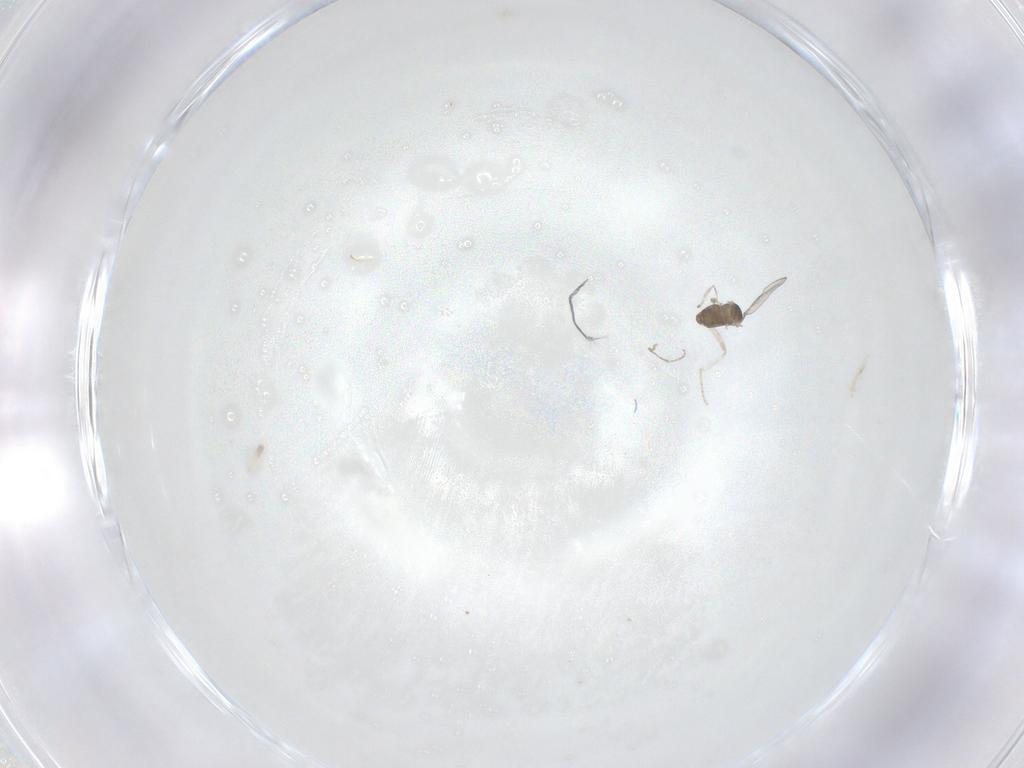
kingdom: Animalia
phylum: Arthropoda
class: Insecta
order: Diptera
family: Cecidomyiidae
